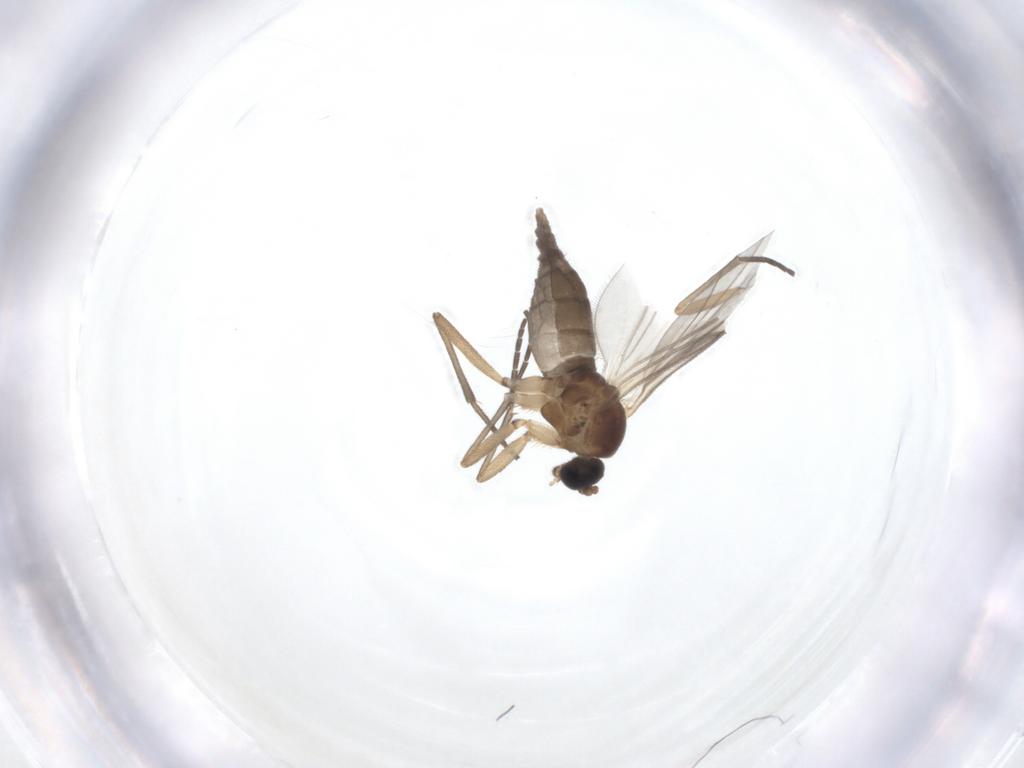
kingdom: Animalia
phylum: Arthropoda
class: Insecta
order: Diptera
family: Sciaridae
